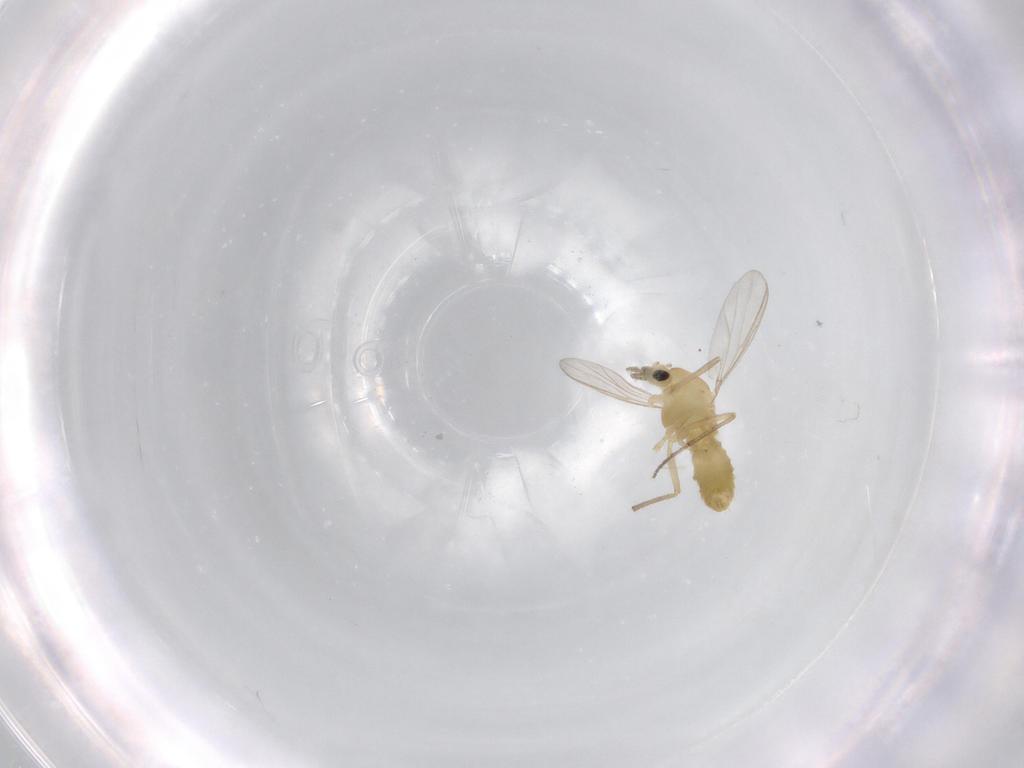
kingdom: Animalia
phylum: Arthropoda
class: Insecta
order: Diptera
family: Chironomidae
